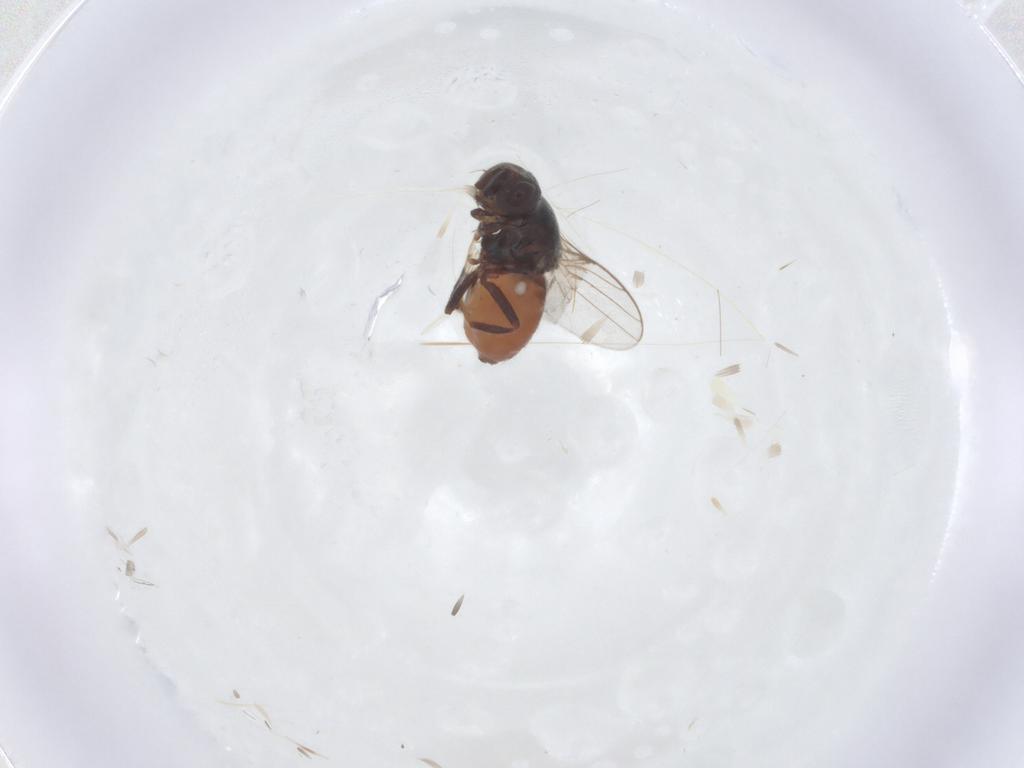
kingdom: Animalia
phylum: Arthropoda
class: Insecta
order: Diptera
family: Chloropidae
